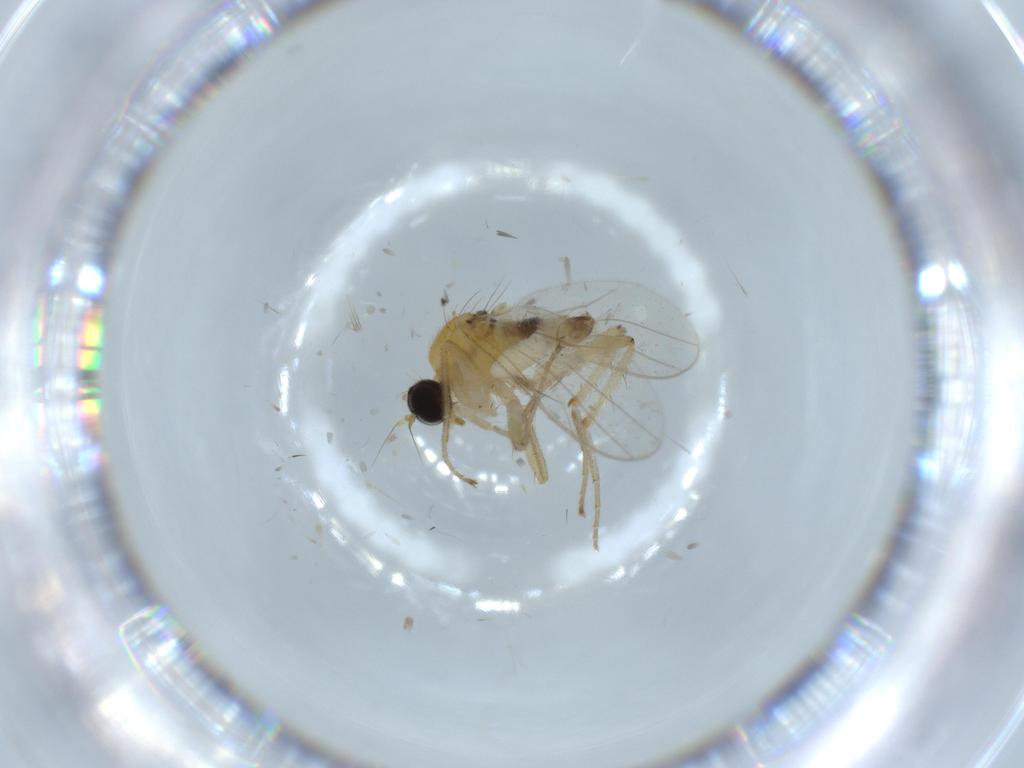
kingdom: Animalia
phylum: Arthropoda
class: Insecta
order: Diptera
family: Hybotidae
